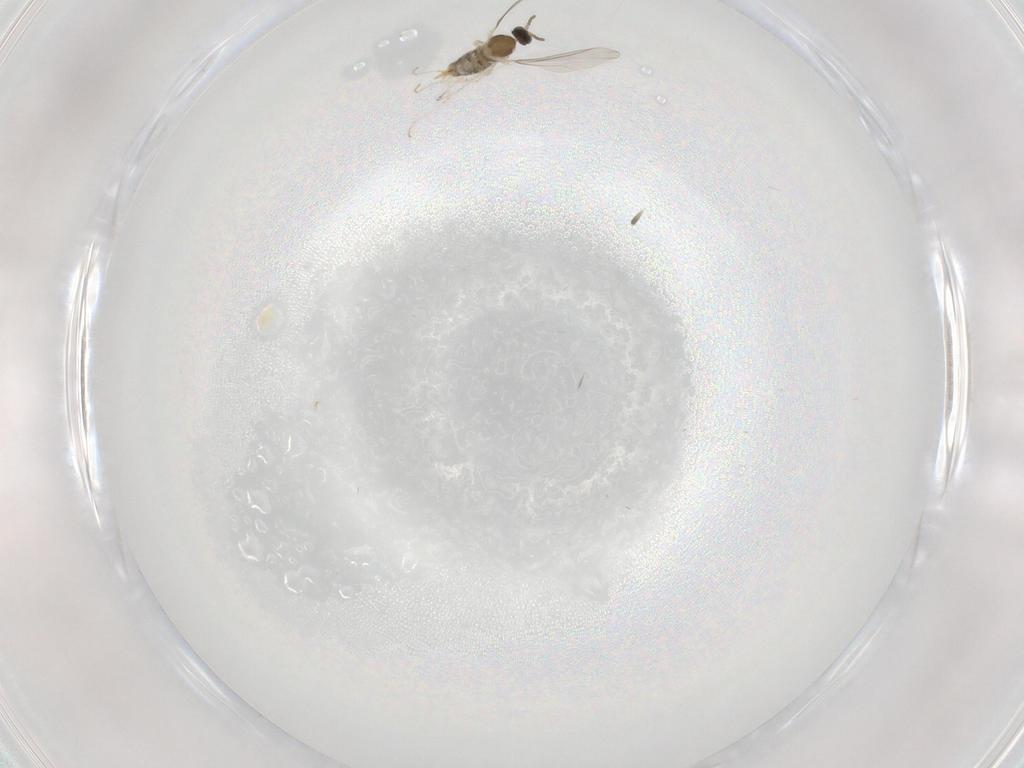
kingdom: Animalia
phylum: Arthropoda
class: Insecta
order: Diptera
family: Cecidomyiidae
